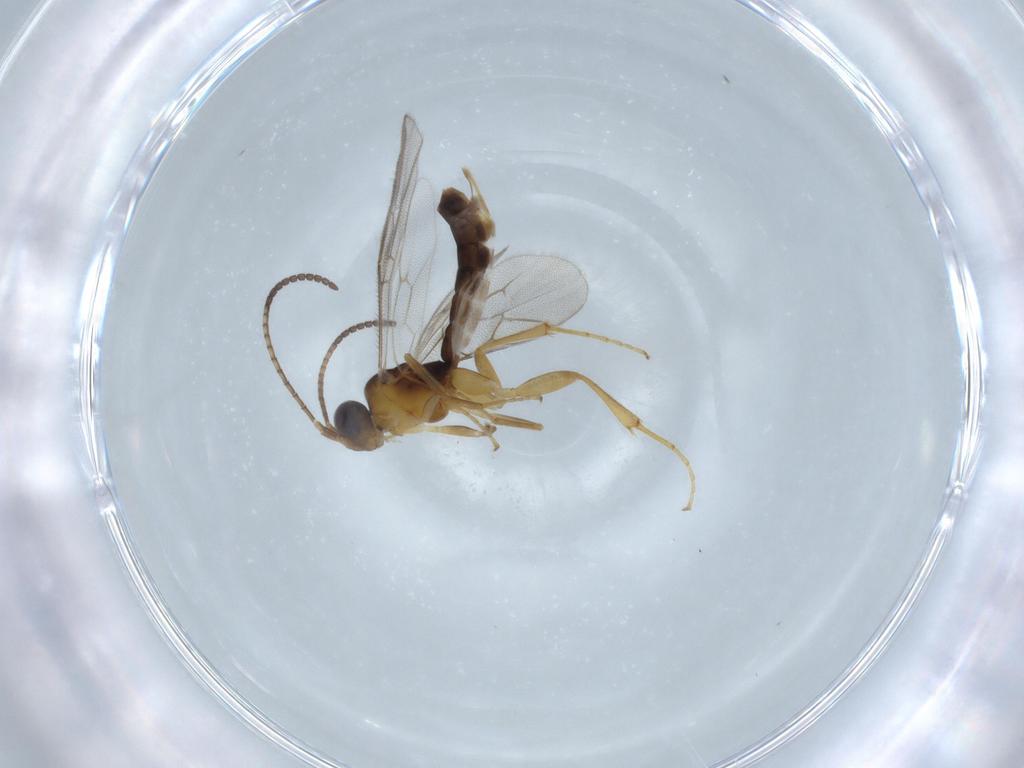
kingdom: Animalia
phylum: Arthropoda
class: Insecta
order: Hymenoptera
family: Ichneumonidae
